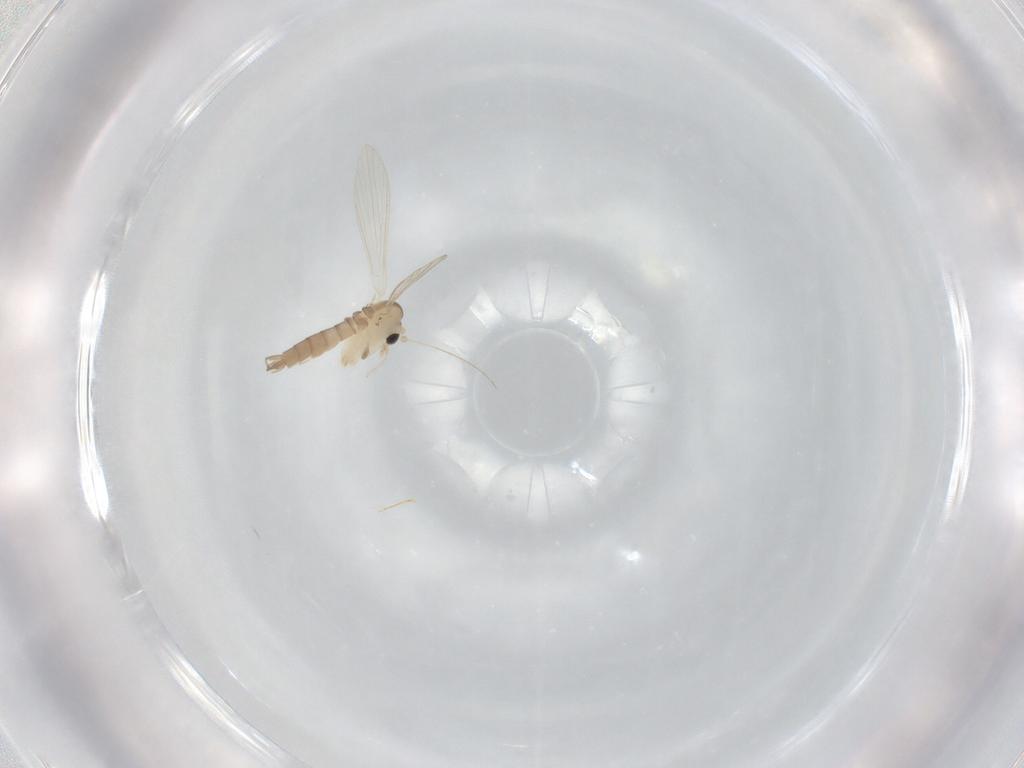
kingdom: Animalia
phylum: Arthropoda
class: Insecta
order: Diptera
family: Psychodidae
